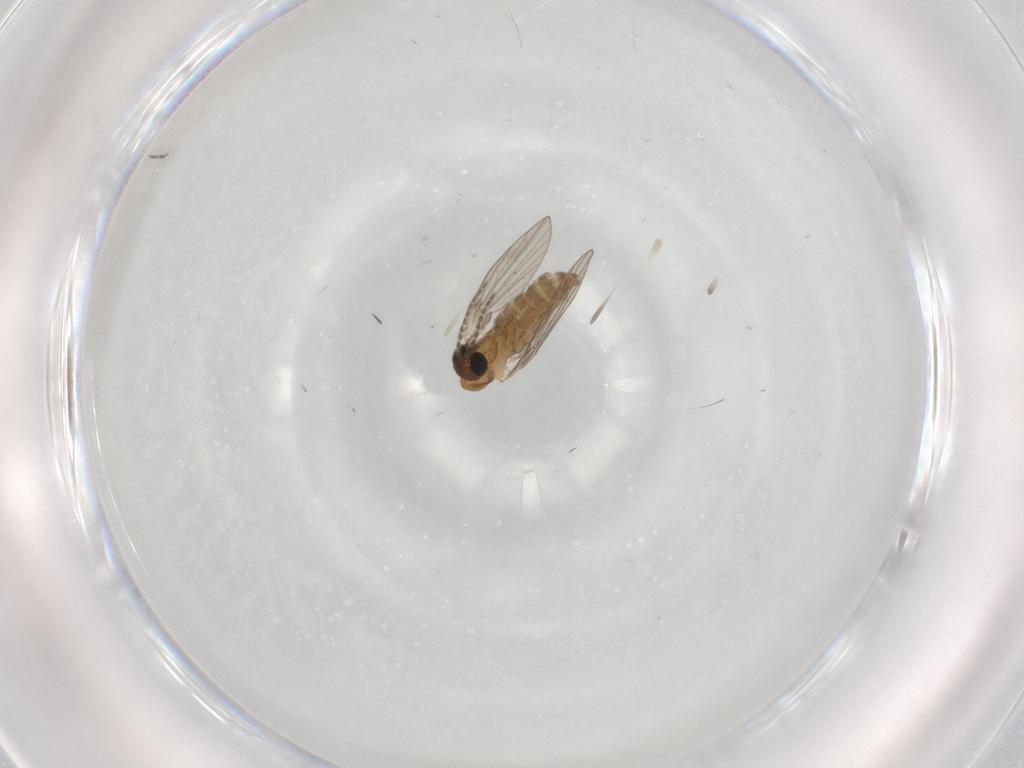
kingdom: Animalia
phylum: Arthropoda
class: Insecta
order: Diptera
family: Psychodidae
